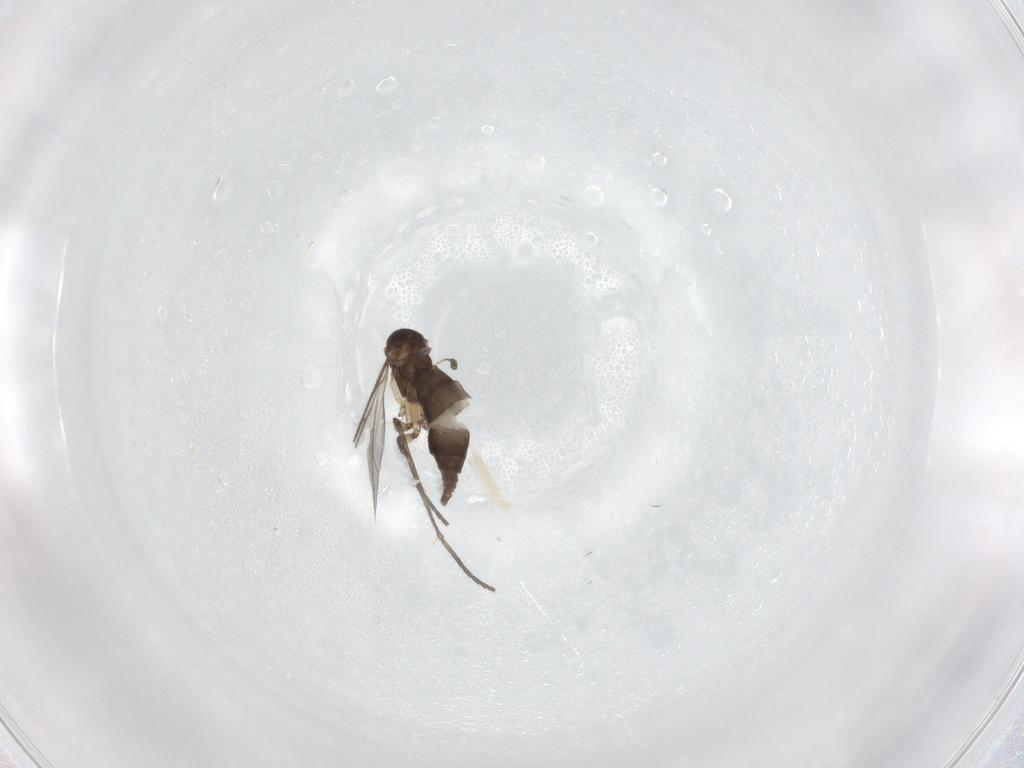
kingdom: Animalia
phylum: Arthropoda
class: Insecta
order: Diptera
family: Sciaridae
